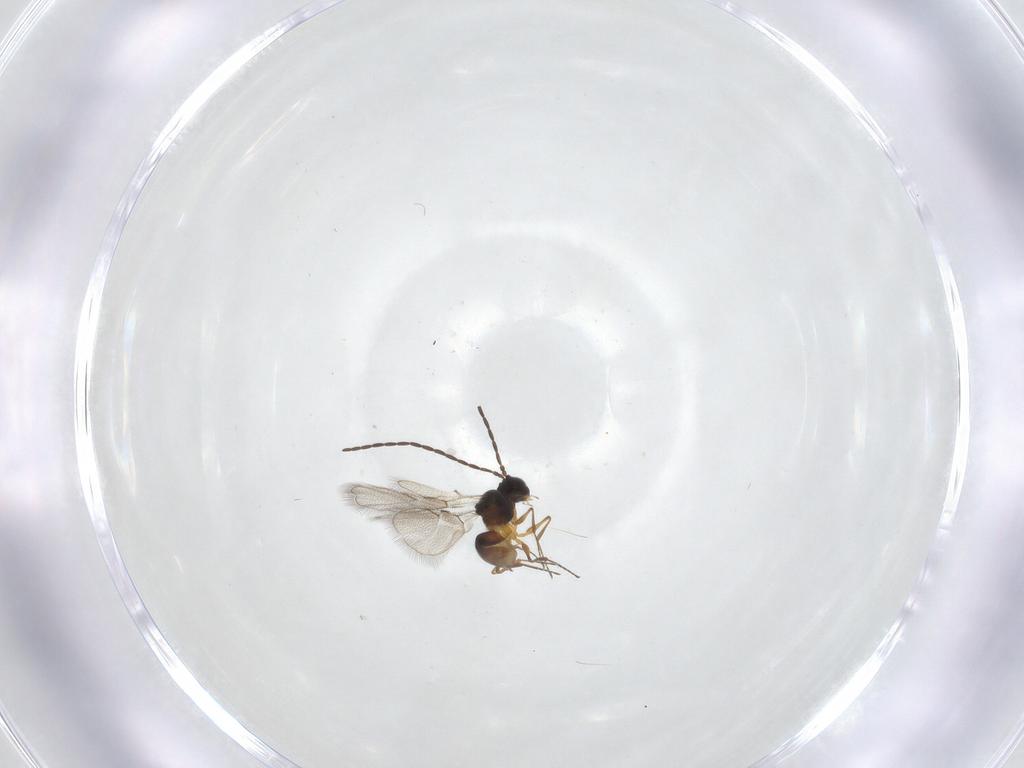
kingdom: Animalia
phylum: Arthropoda
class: Insecta
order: Hymenoptera
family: Figitidae
